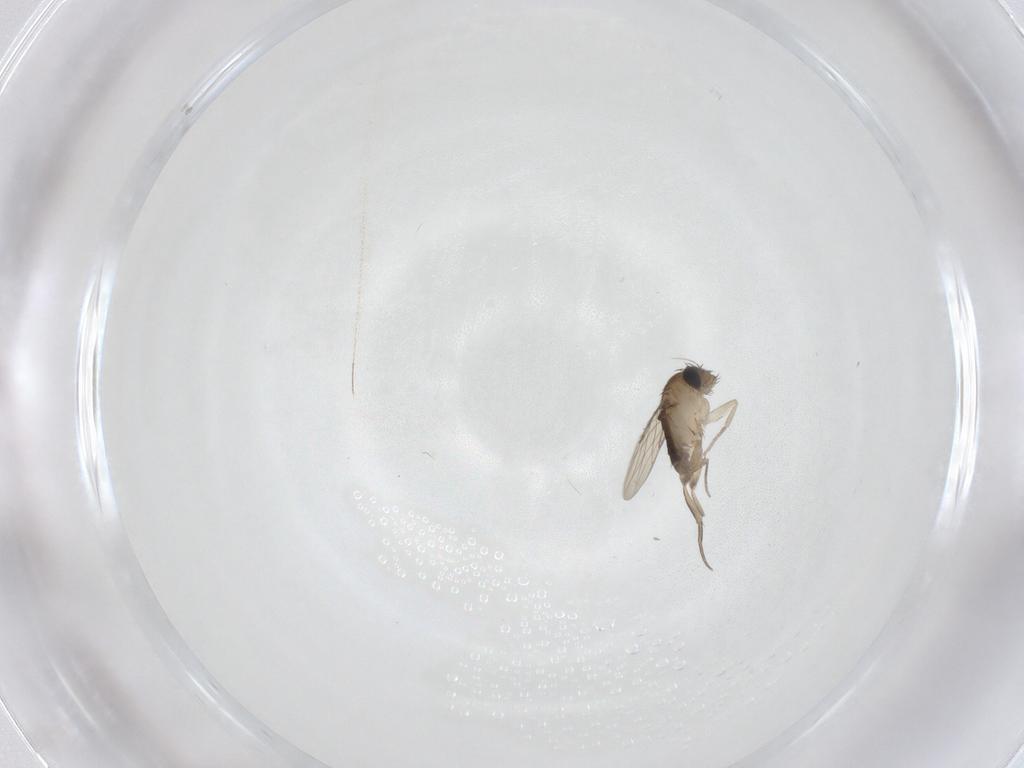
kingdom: Animalia
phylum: Arthropoda
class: Insecta
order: Diptera
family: Phoridae
